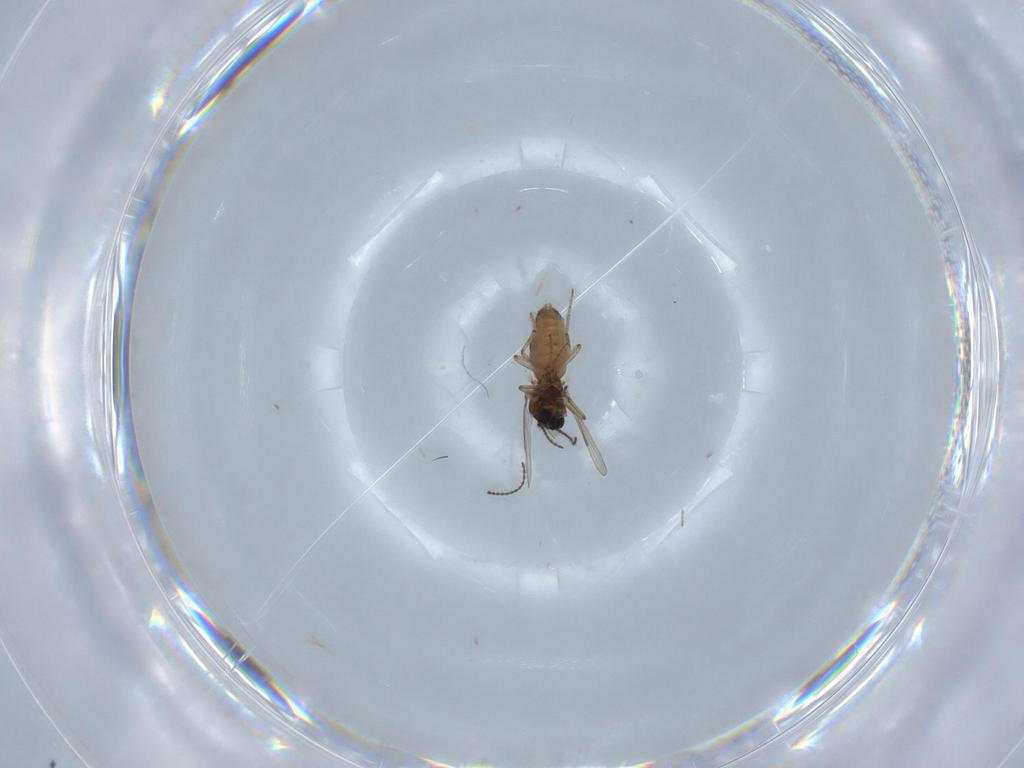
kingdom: Animalia
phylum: Arthropoda
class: Insecta
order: Diptera
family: Ceratopogonidae
